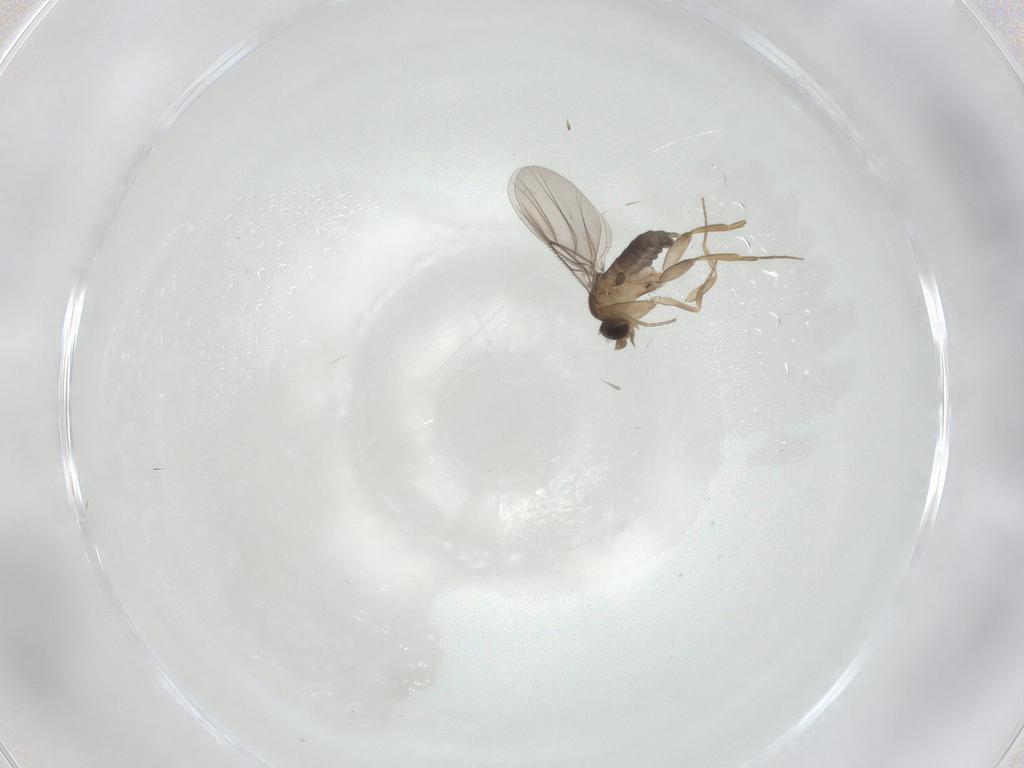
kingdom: Animalia
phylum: Arthropoda
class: Insecta
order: Diptera
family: Phoridae
